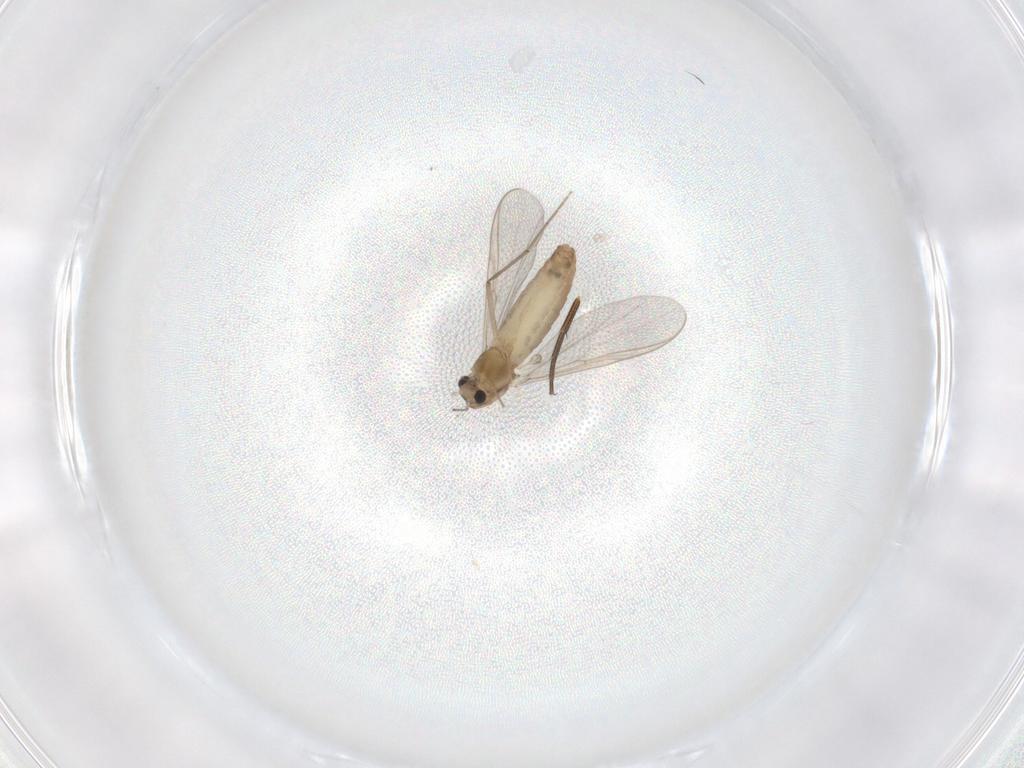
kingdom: Animalia
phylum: Arthropoda
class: Insecta
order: Diptera
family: Chironomidae
